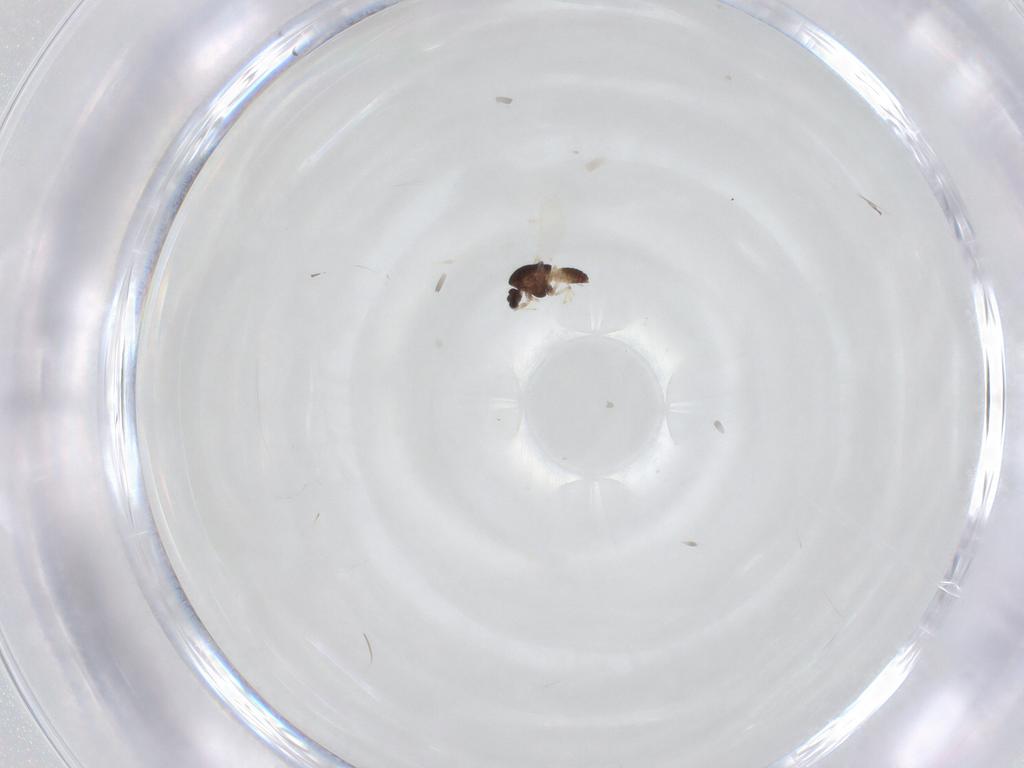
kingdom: Animalia
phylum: Arthropoda
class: Insecta
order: Diptera
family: Chironomidae
